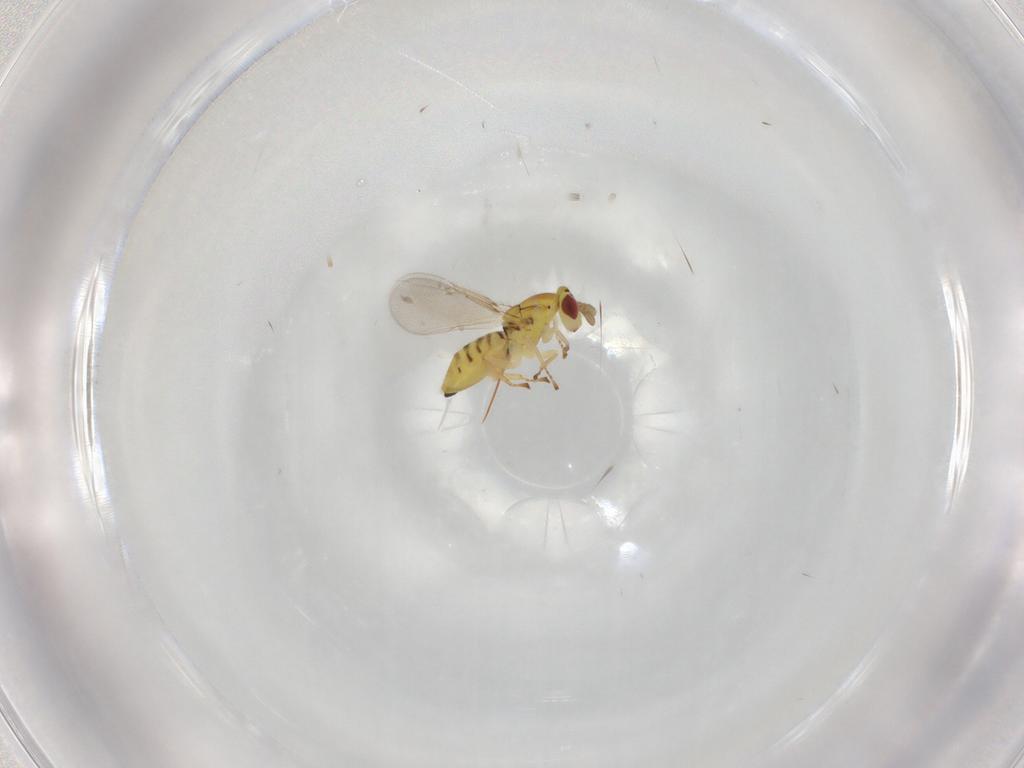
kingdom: Animalia
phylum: Arthropoda
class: Insecta
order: Hymenoptera
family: Eulophidae
